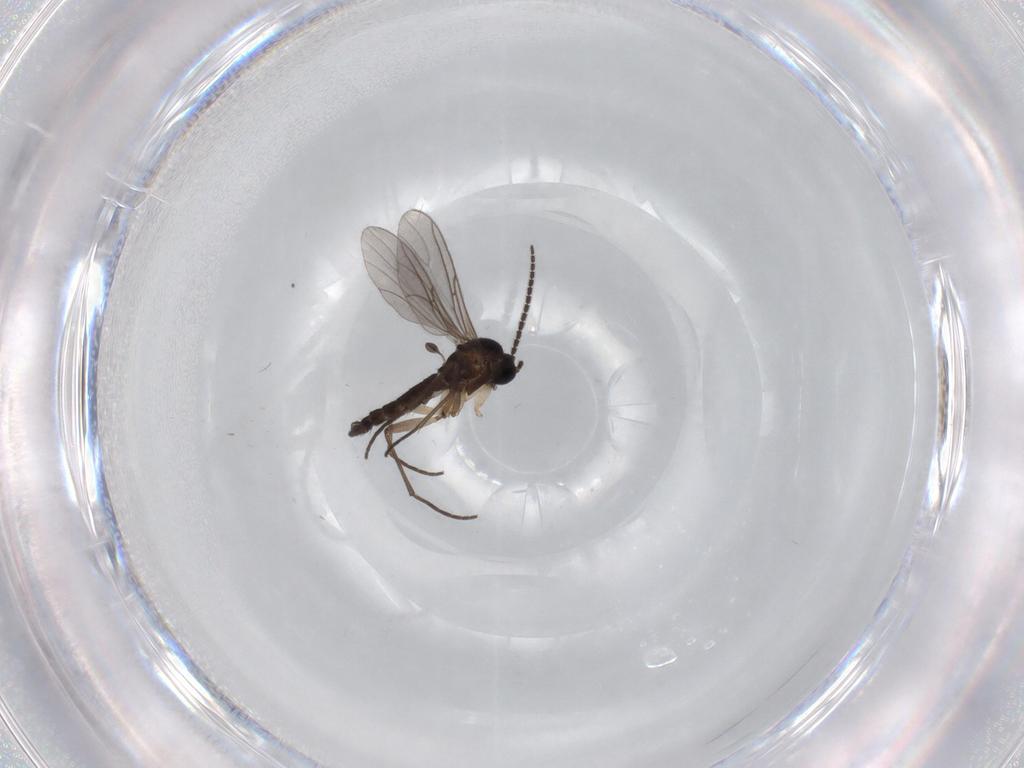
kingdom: Animalia
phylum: Arthropoda
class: Insecta
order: Diptera
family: Sciaridae
